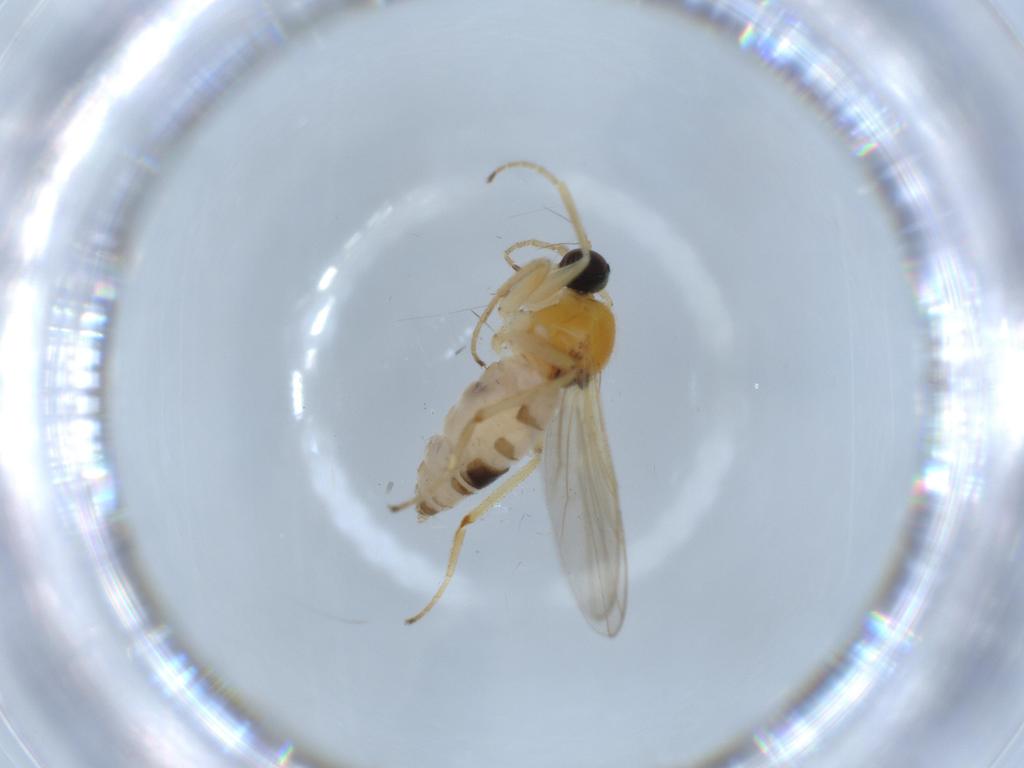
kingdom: Animalia
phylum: Arthropoda
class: Insecta
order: Diptera
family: Hybotidae
